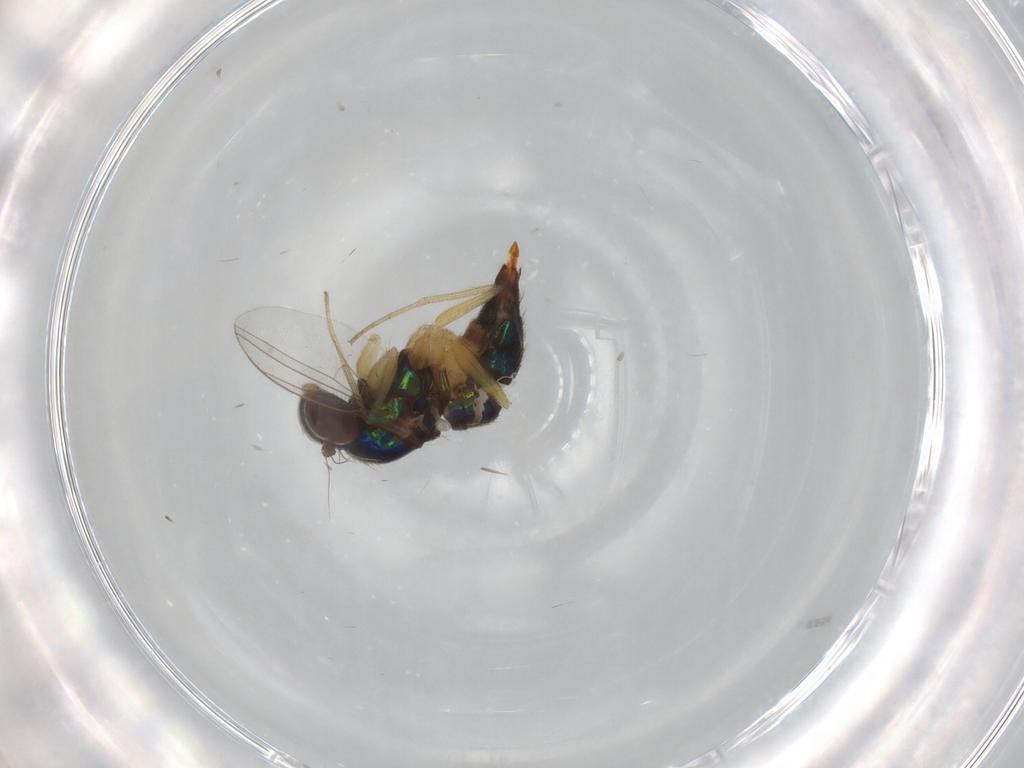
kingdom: Animalia
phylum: Arthropoda
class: Insecta
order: Diptera
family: Dolichopodidae
